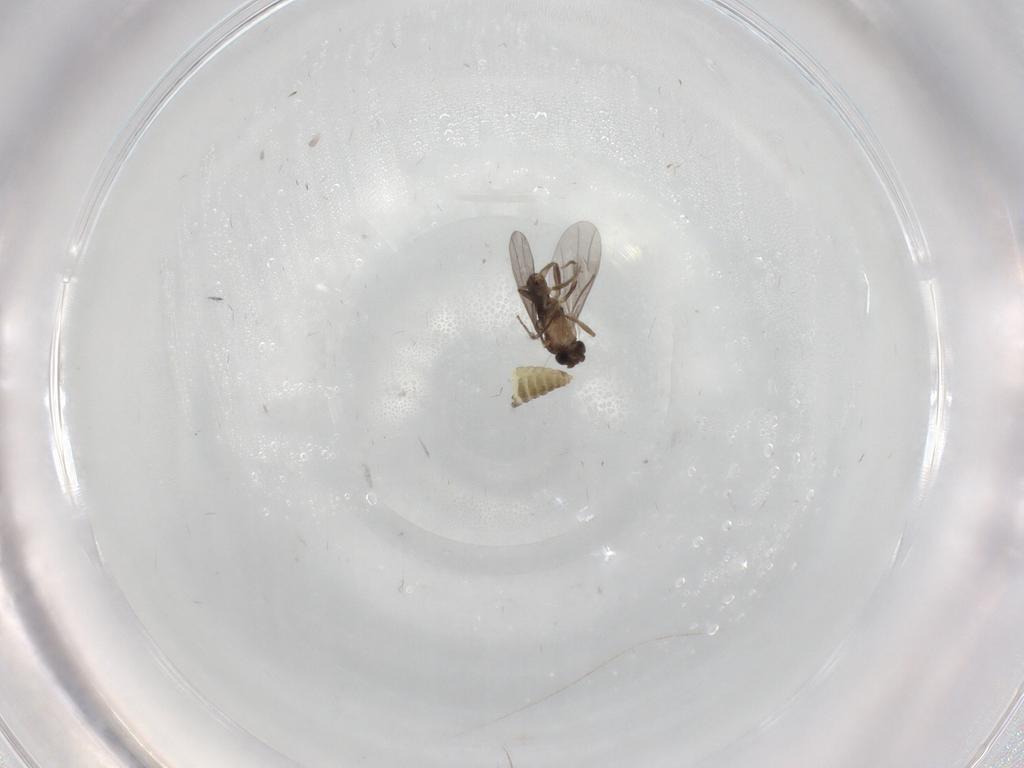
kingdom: Animalia
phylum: Arthropoda
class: Insecta
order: Diptera
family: Chironomidae
